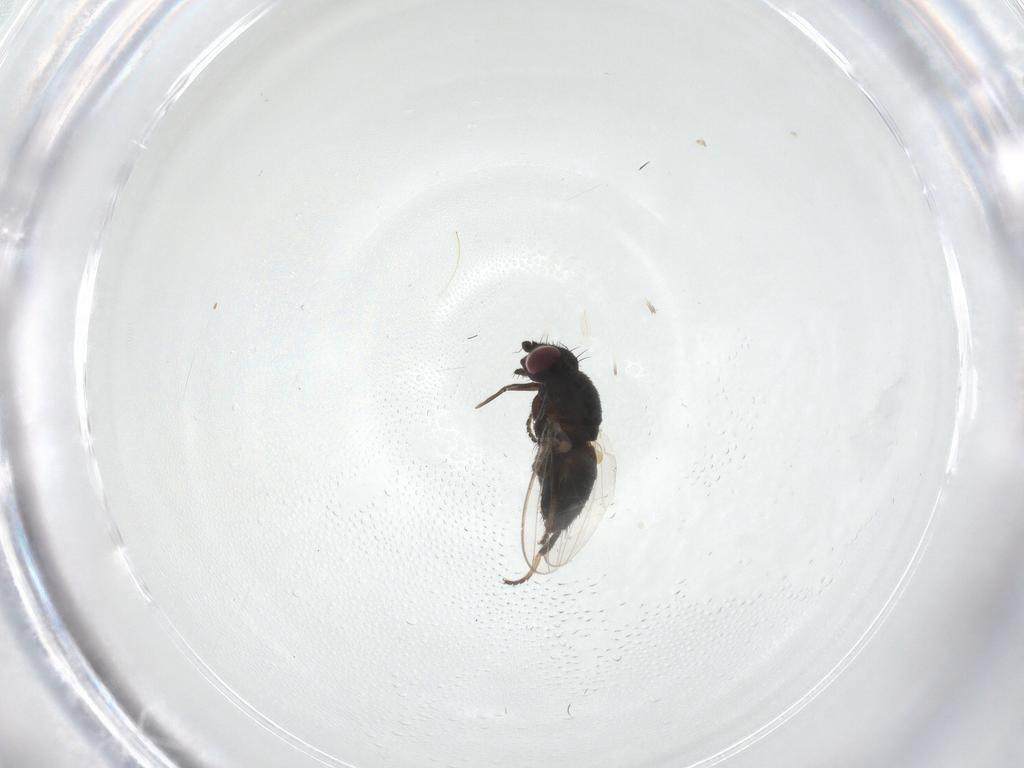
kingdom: Animalia
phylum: Arthropoda
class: Insecta
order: Diptera
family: Milichiidae
